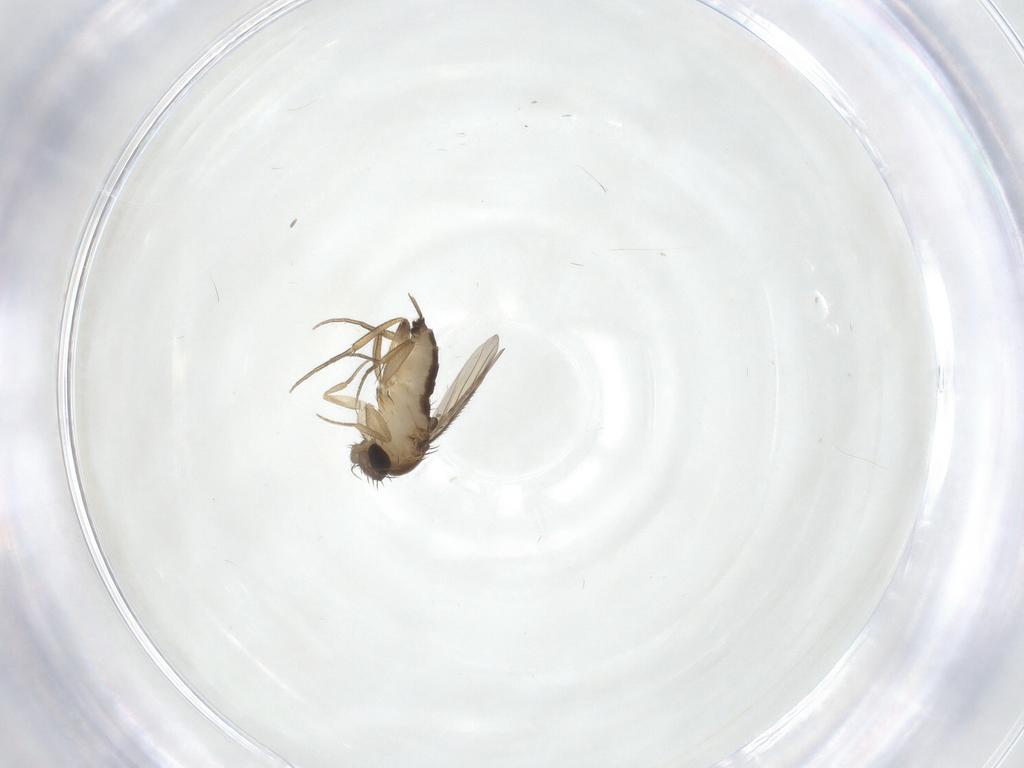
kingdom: Animalia
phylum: Arthropoda
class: Insecta
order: Diptera
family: Phoridae
